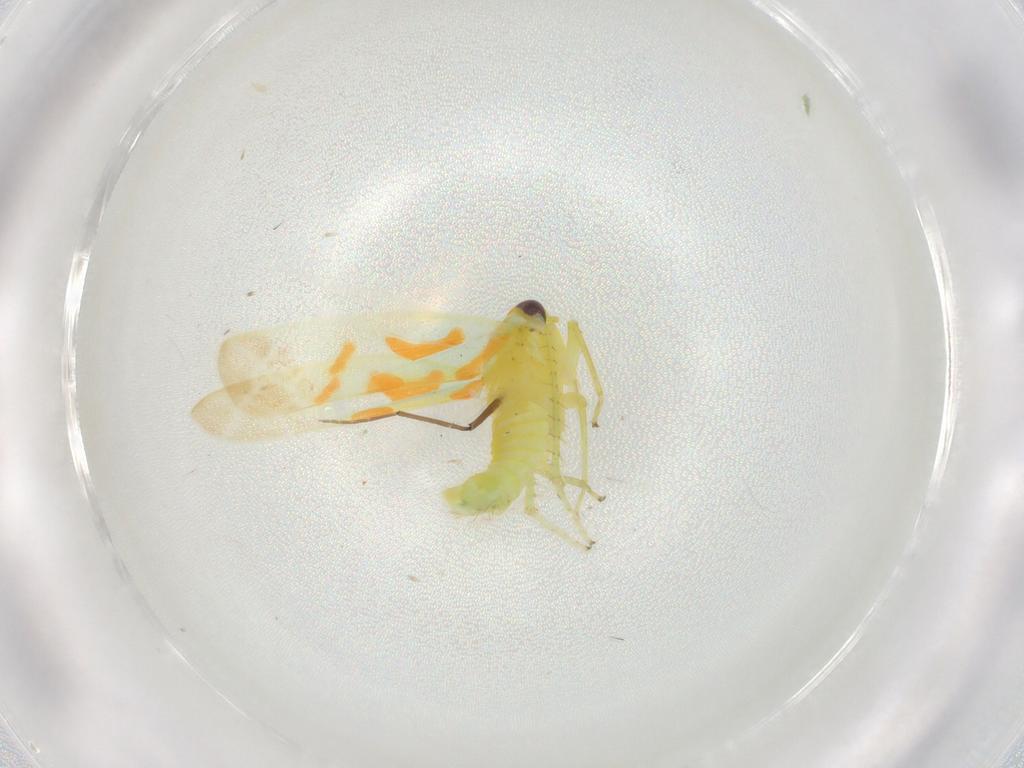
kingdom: Animalia
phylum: Arthropoda
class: Insecta
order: Hemiptera
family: Cicadellidae
